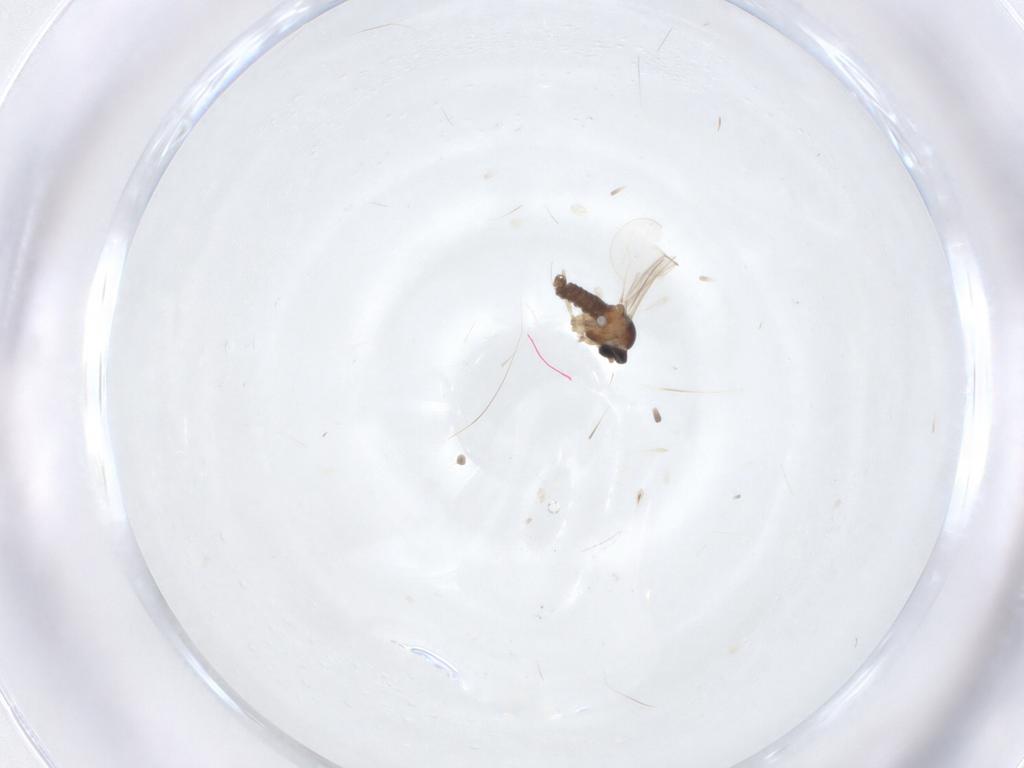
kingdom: Animalia
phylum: Arthropoda
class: Insecta
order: Diptera
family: Cecidomyiidae
